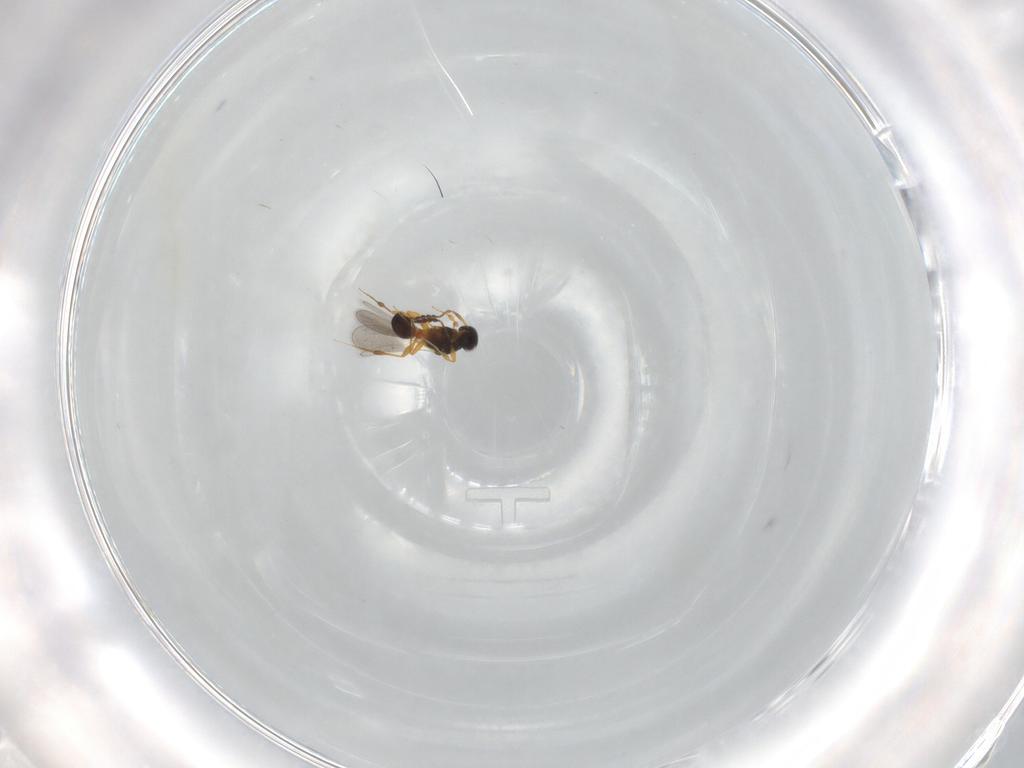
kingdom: Animalia
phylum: Arthropoda
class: Insecta
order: Hymenoptera
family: Platygastridae
